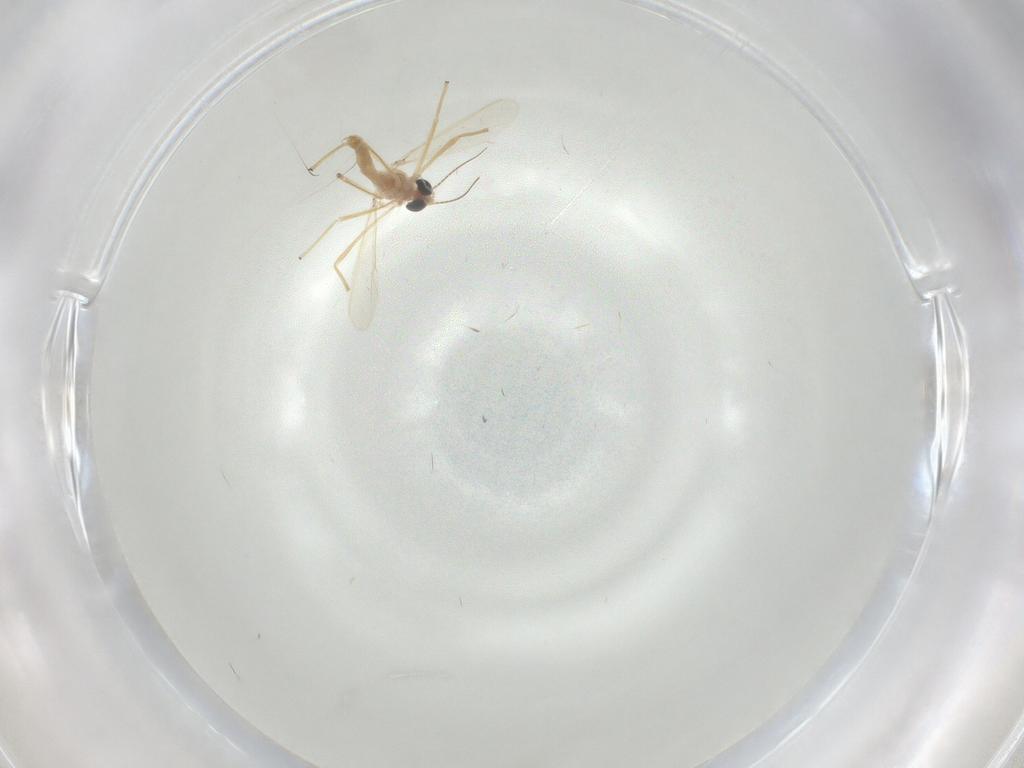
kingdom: Animalia
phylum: Arthropoda
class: Insecta
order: Diptera
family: Chironomidae
